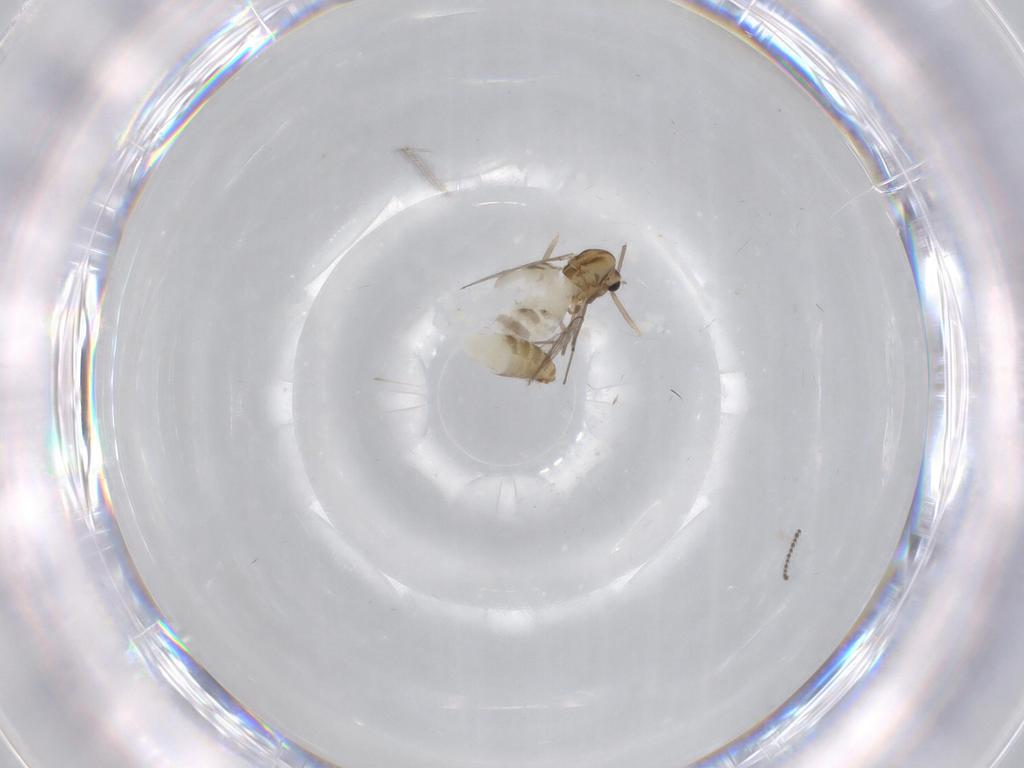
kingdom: Animalia
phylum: Arthropoda
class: Insecta
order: Diptera
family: Chironomidae
